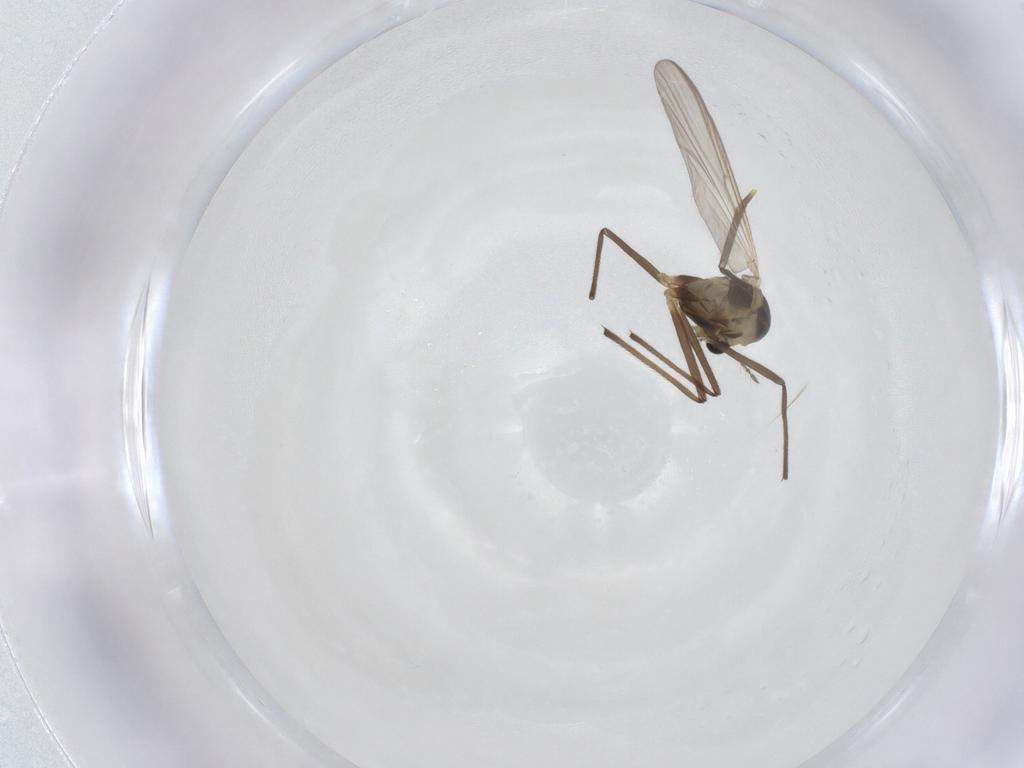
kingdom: Animalia
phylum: Arthropoda
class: Insecta
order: Diptera
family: Chironomidae
